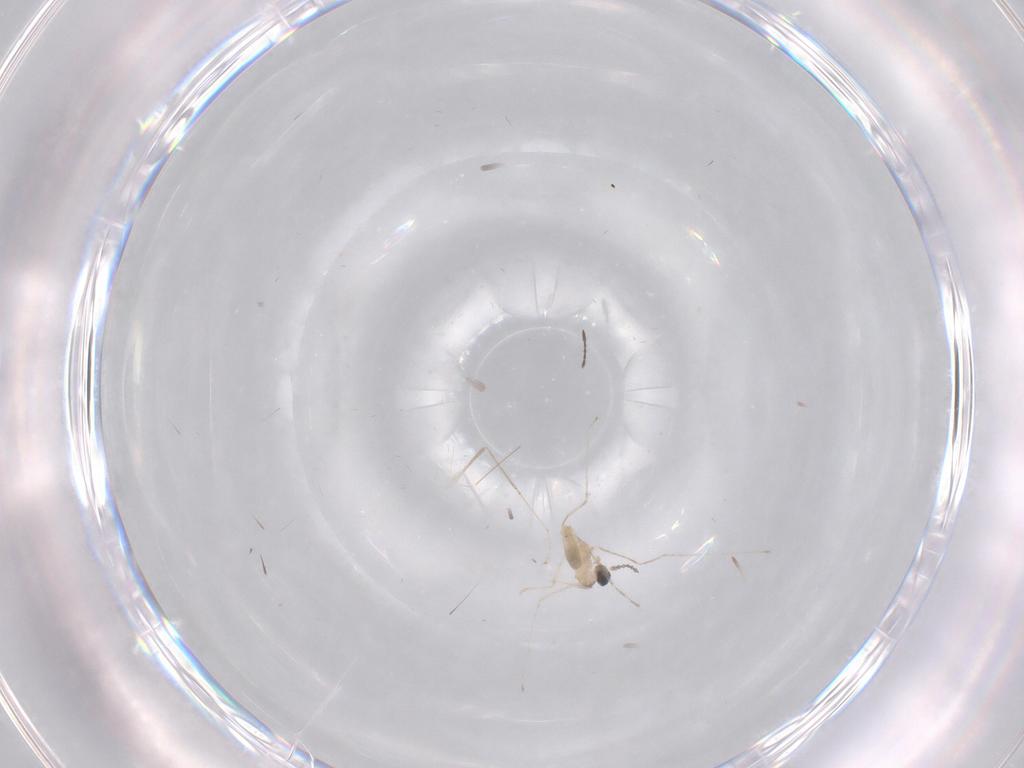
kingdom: Animalia
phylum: Arthropoda
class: Insecta
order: Diptera
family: Cecidomyiidae
